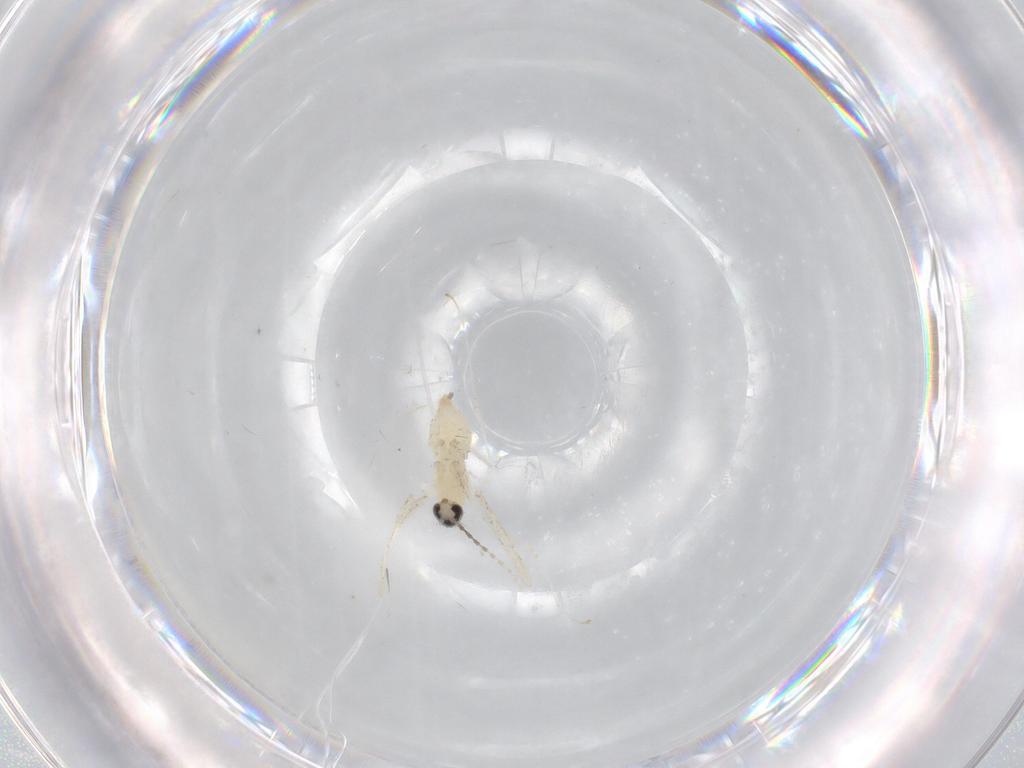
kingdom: Animalia
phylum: Arthropoda
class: Insecta
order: Diptera
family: Cecidomyiidae
